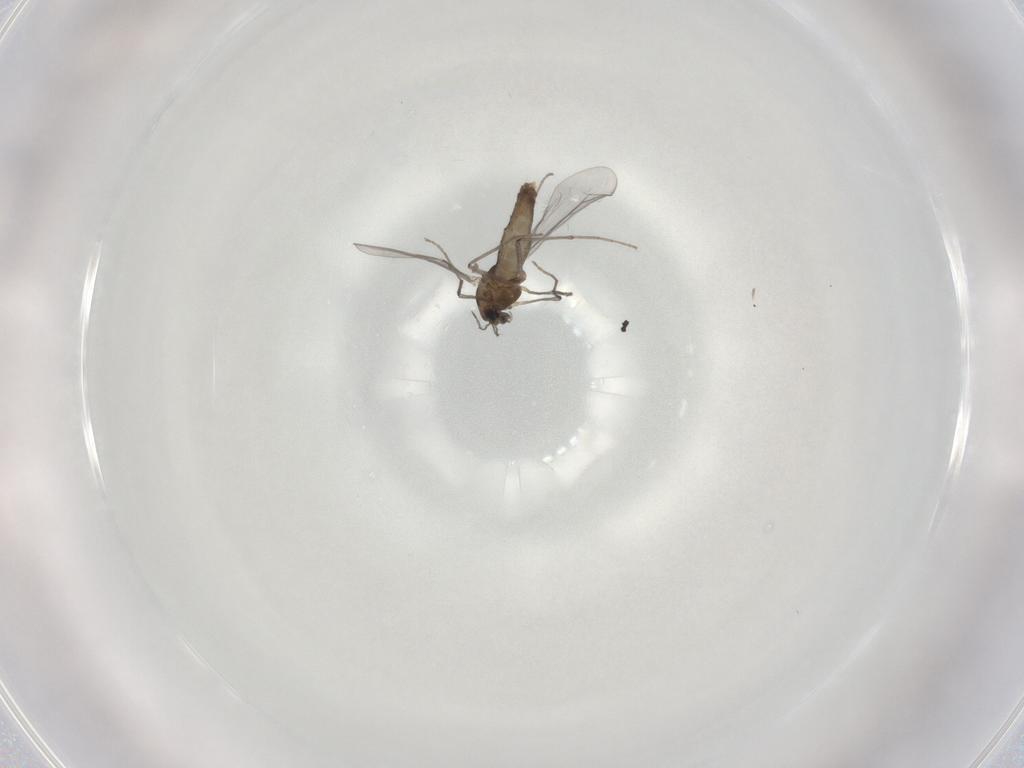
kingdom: Animalia
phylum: Arthropoda
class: Insecta
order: Diptera
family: Chironomidae
